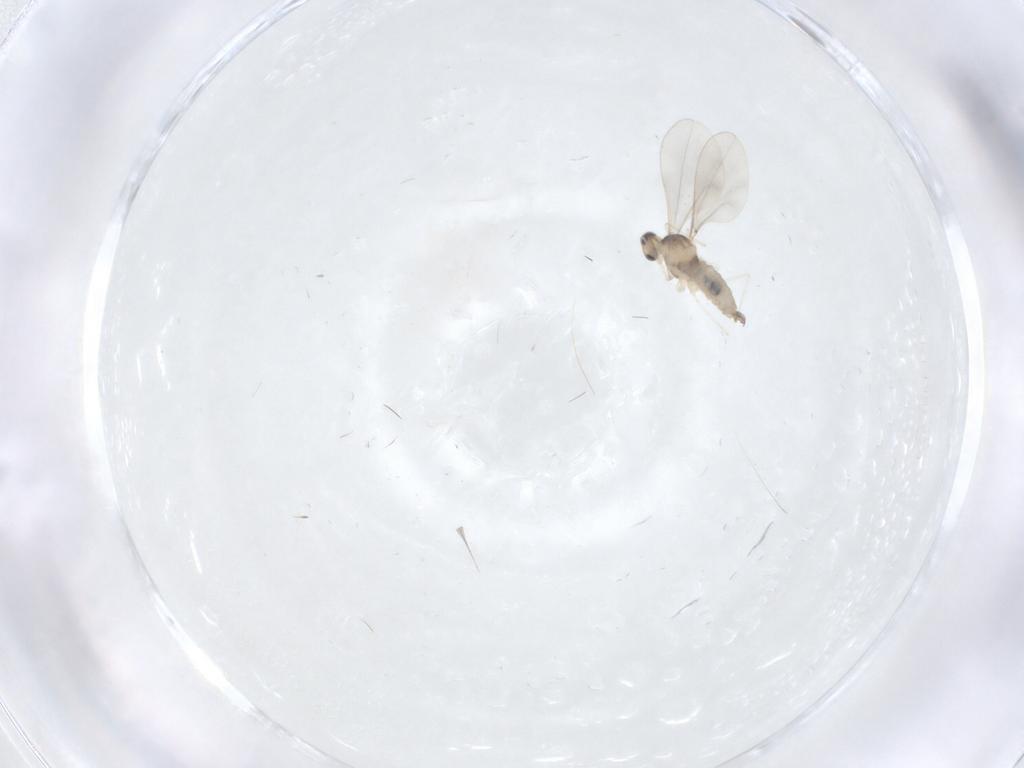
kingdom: Animalia
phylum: Arthropoda
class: Insecta
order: Diptera
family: Cecidomyiidae
